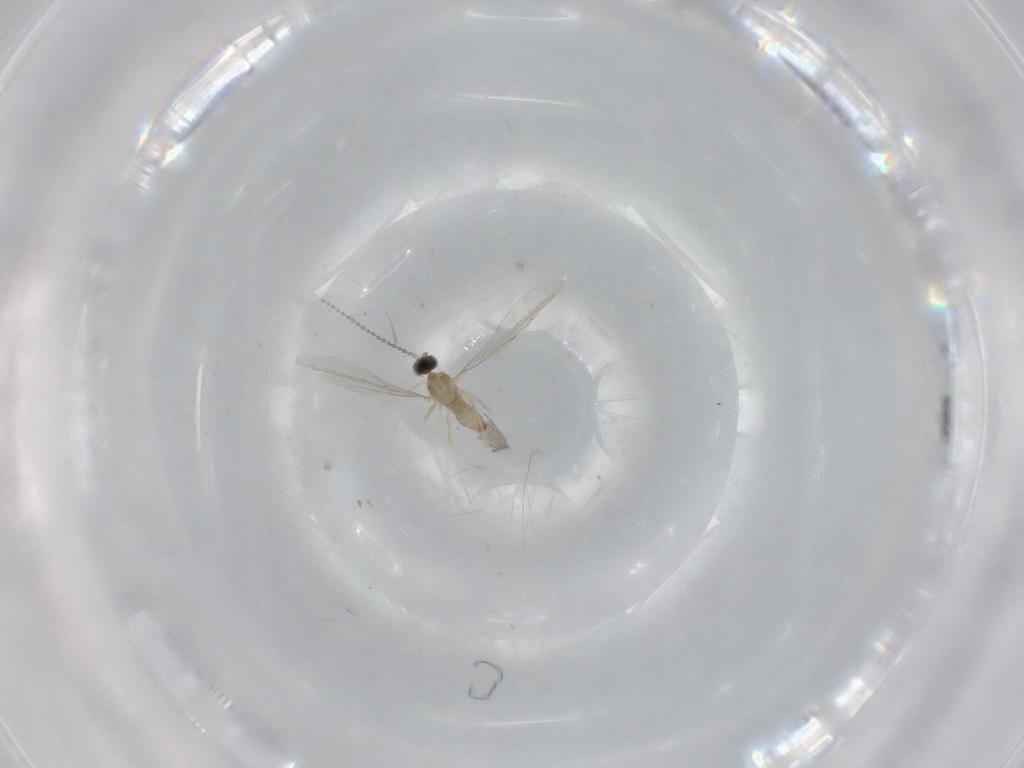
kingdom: Animalia
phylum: Arthropoda
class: Insecta
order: Diptera
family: Cecidomyiidae
